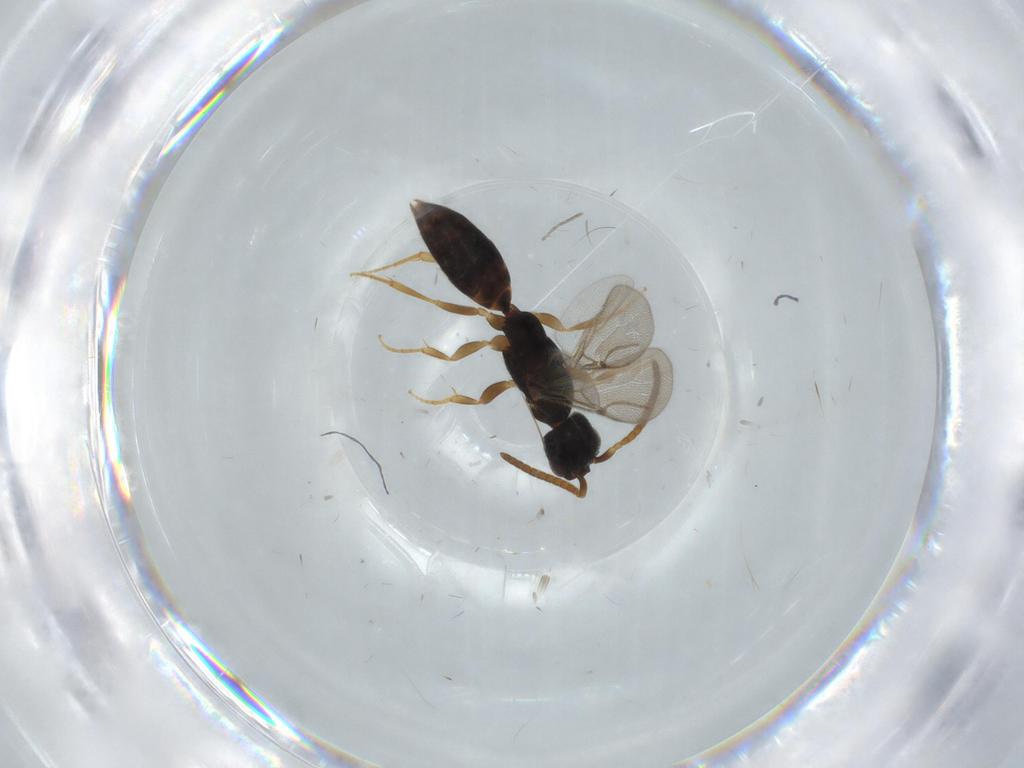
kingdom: Animalia
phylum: Arthropoda
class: Insecta
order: Hymenoptera
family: Bethylidae
